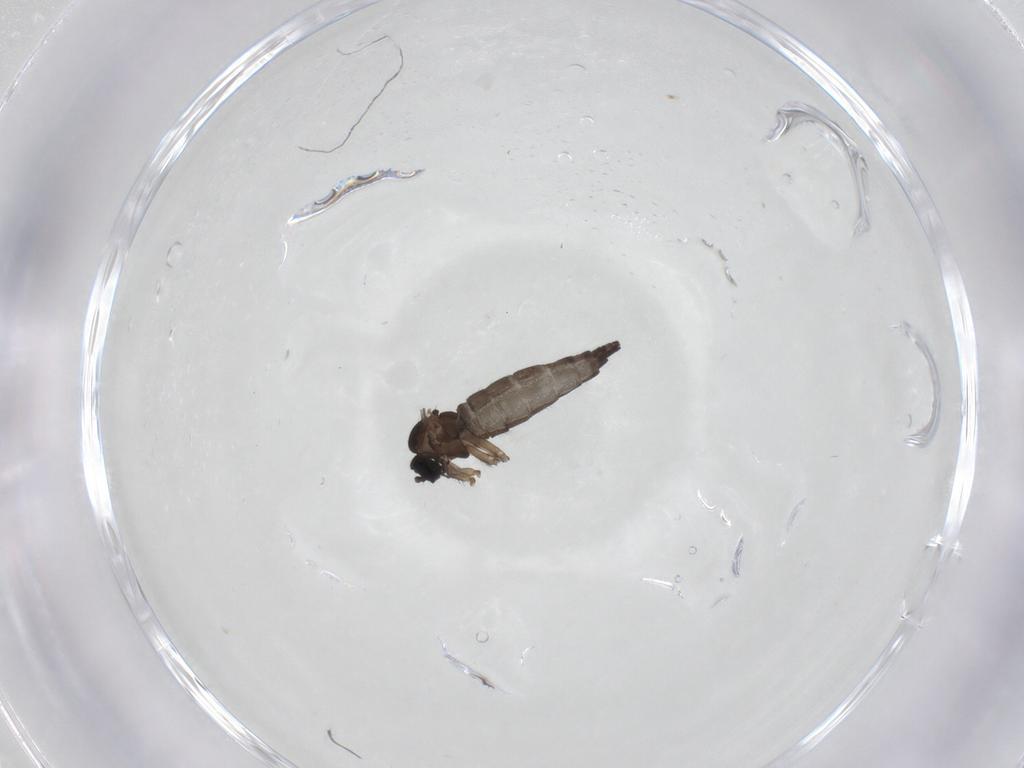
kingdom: Animalia
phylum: Arthropoda
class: Insecta
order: Diptera
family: Sciaridae
